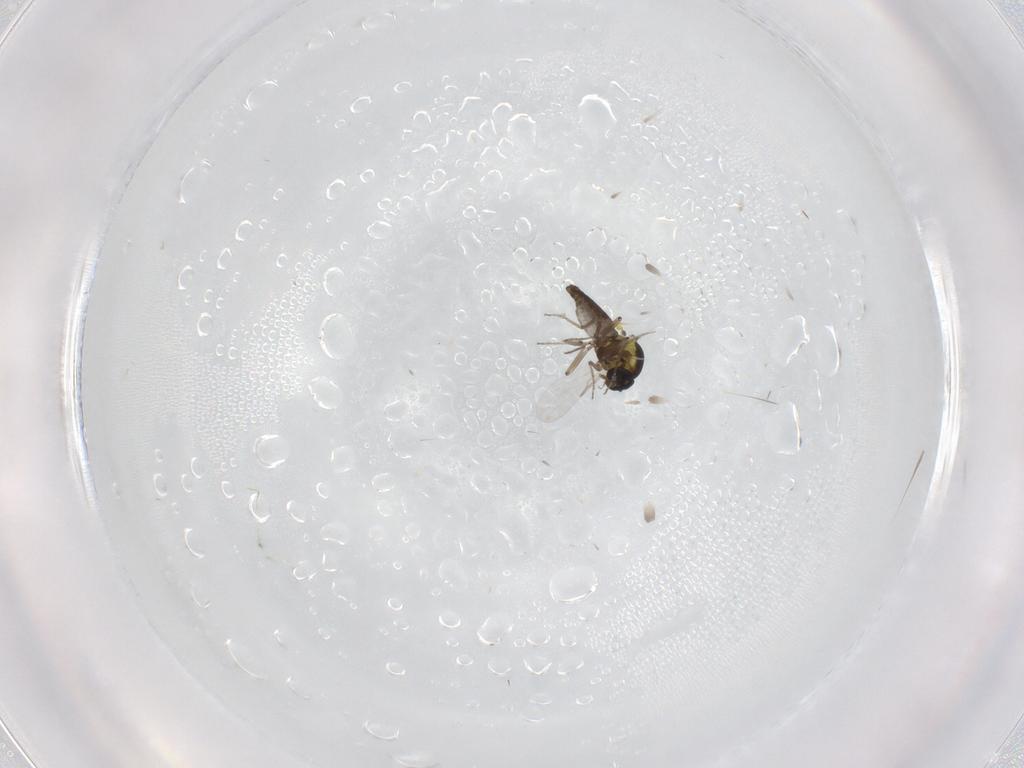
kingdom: Animalia
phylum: Arthropoda
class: Insecta
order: Diptera
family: Ceratopogonidae
